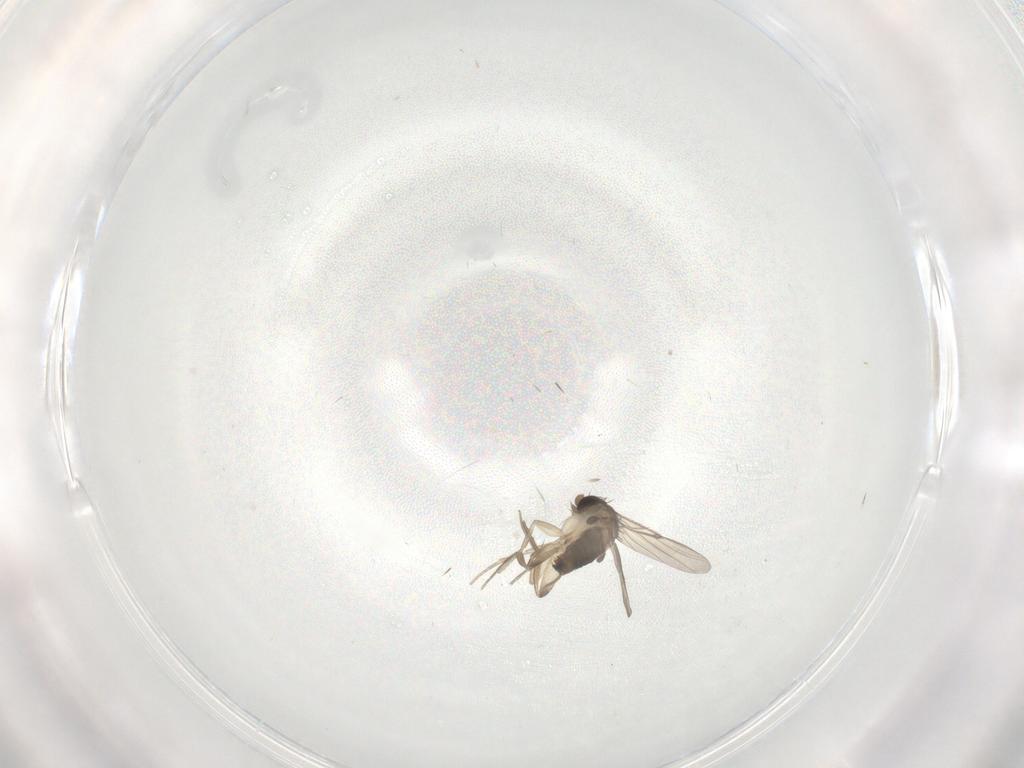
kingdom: Animalia
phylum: Arthropoda
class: Insecta
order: Diptera
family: Phoridae
